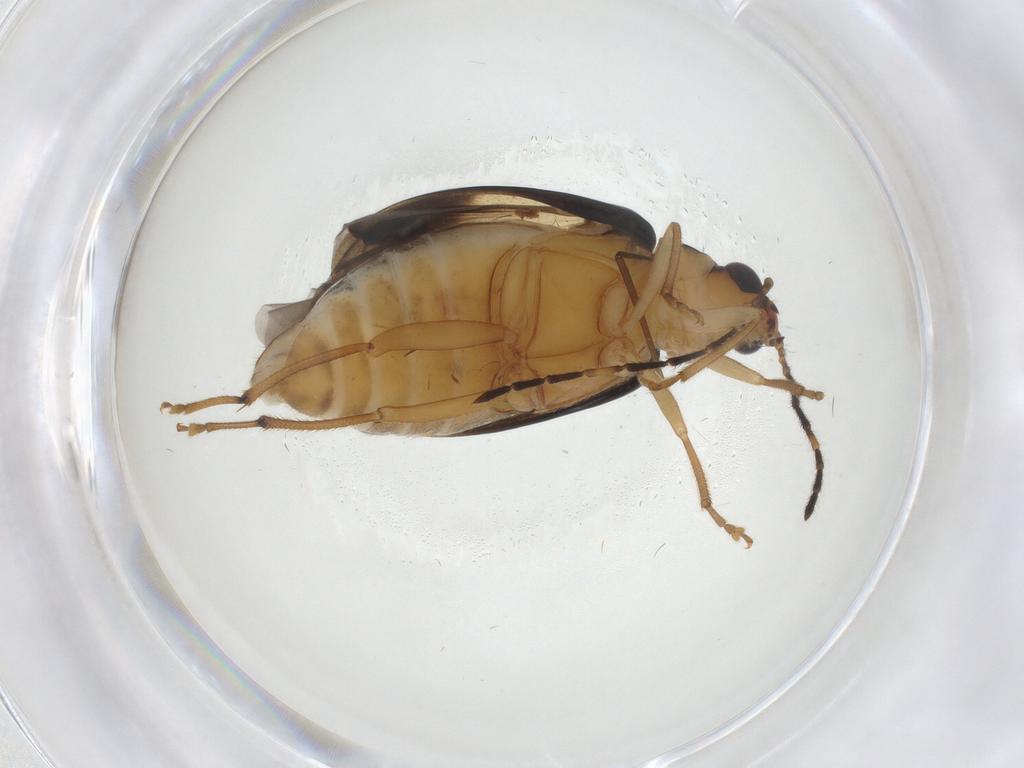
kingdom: Animalia
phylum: Arthropoda
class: Insecta
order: Coleoptera
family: Chrysomelidae
